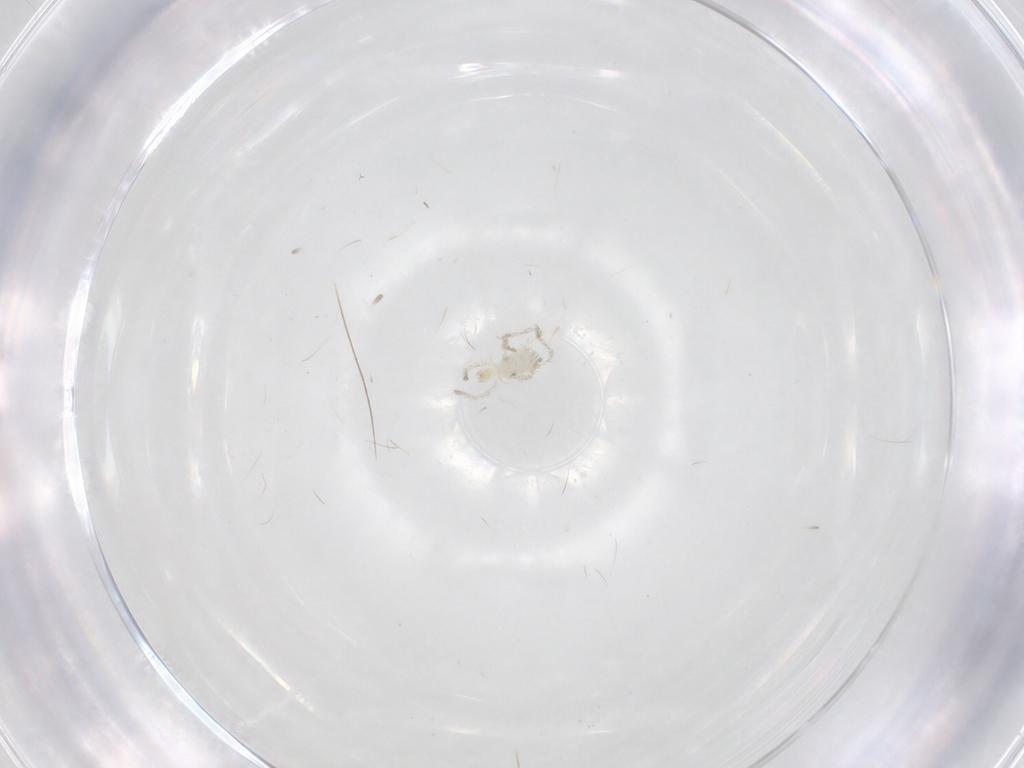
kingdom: Animalia
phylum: Arthropoda
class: Arachnida
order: Trombidiformes
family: Smarididae
